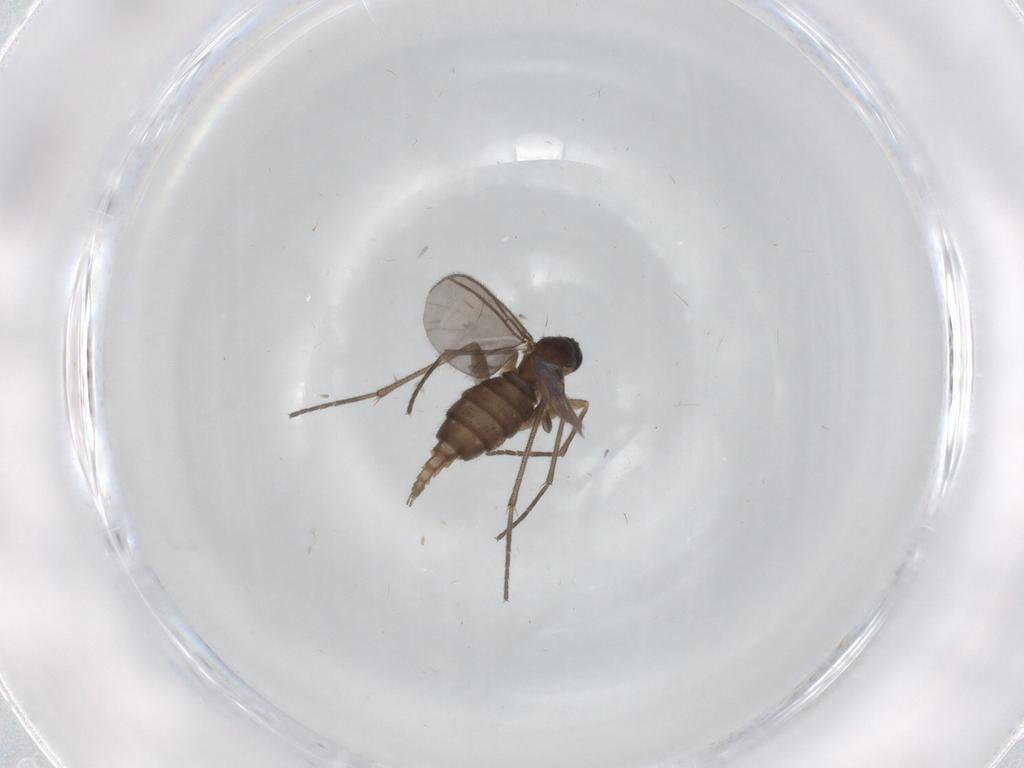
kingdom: Animalia
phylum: Arthropoda
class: Insecta
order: Diptera
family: Sciaridae
